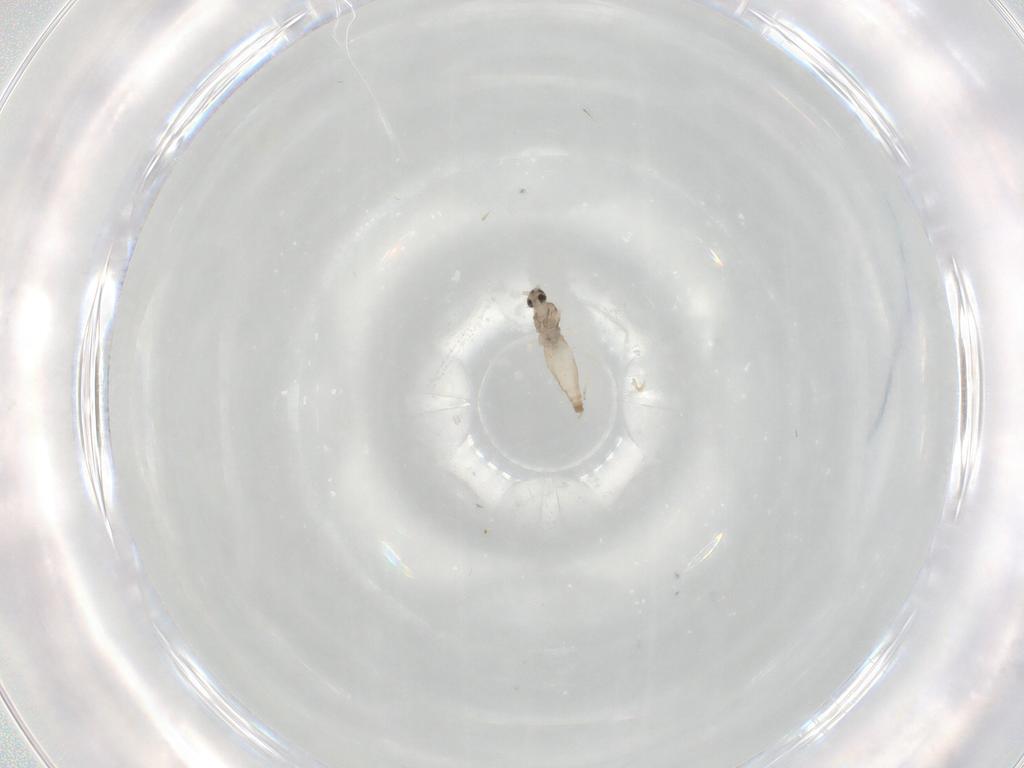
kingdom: Animalia
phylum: Arthropoda
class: Insecta
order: Diptera
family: Cecidomyiidae
